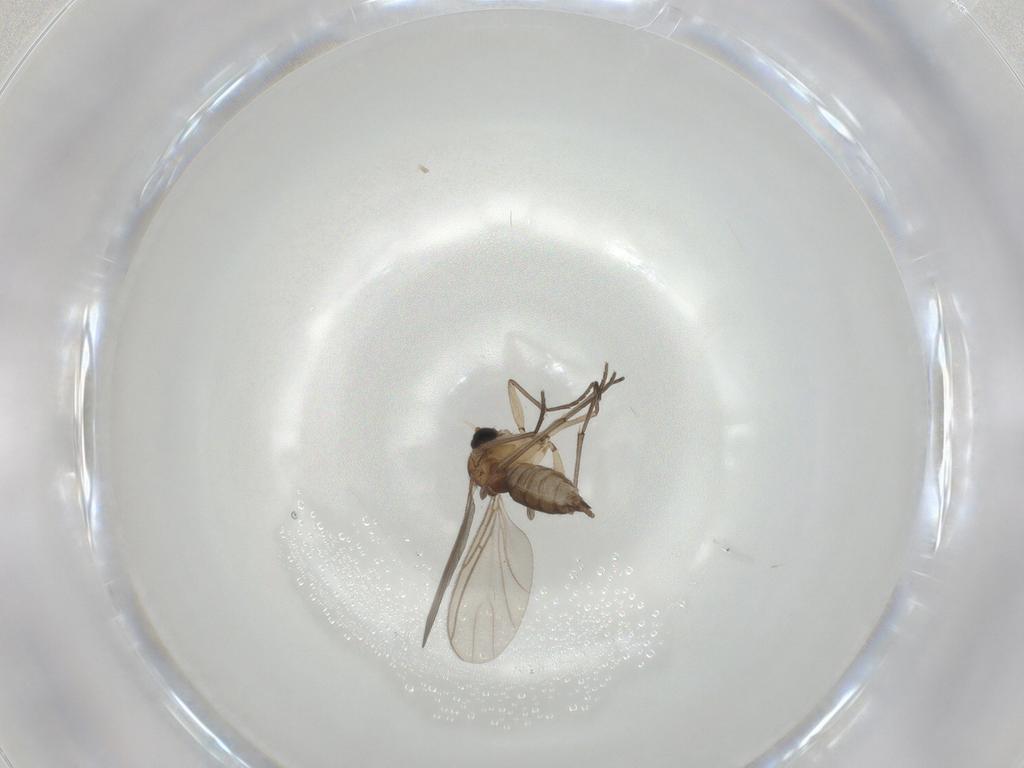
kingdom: Animalia
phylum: Arthropoda
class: Insecta
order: Diptera
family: Sciaridae
